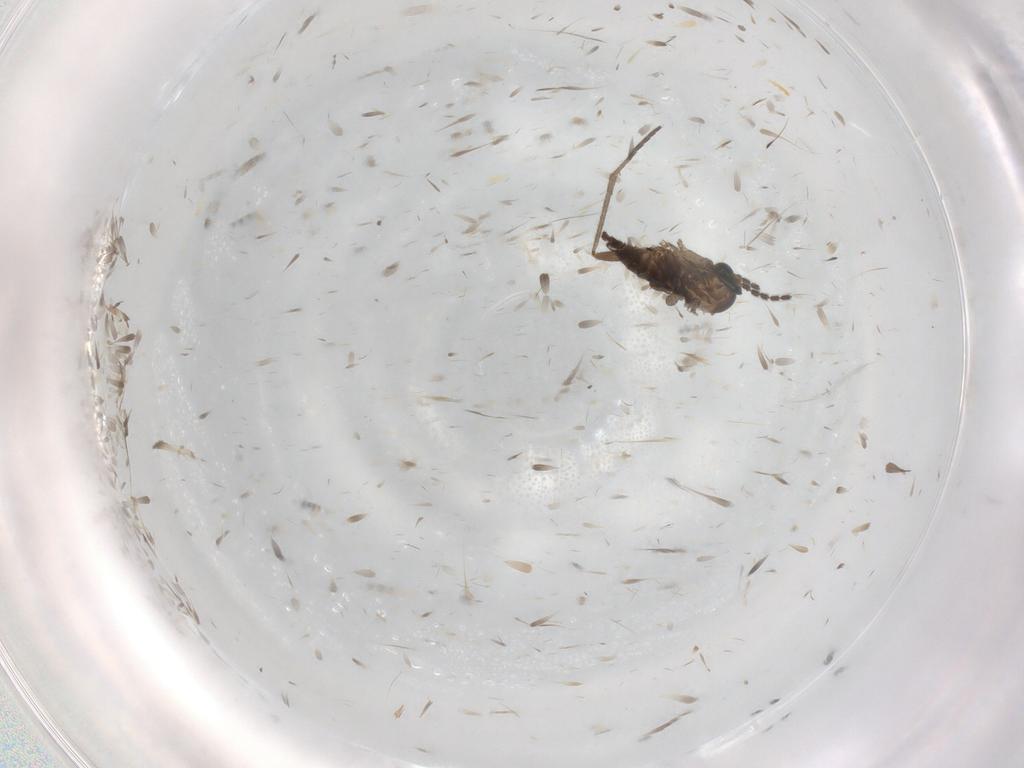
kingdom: Animalia
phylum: Arthropoda
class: Insecta
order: Diptera
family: Sciaridae
